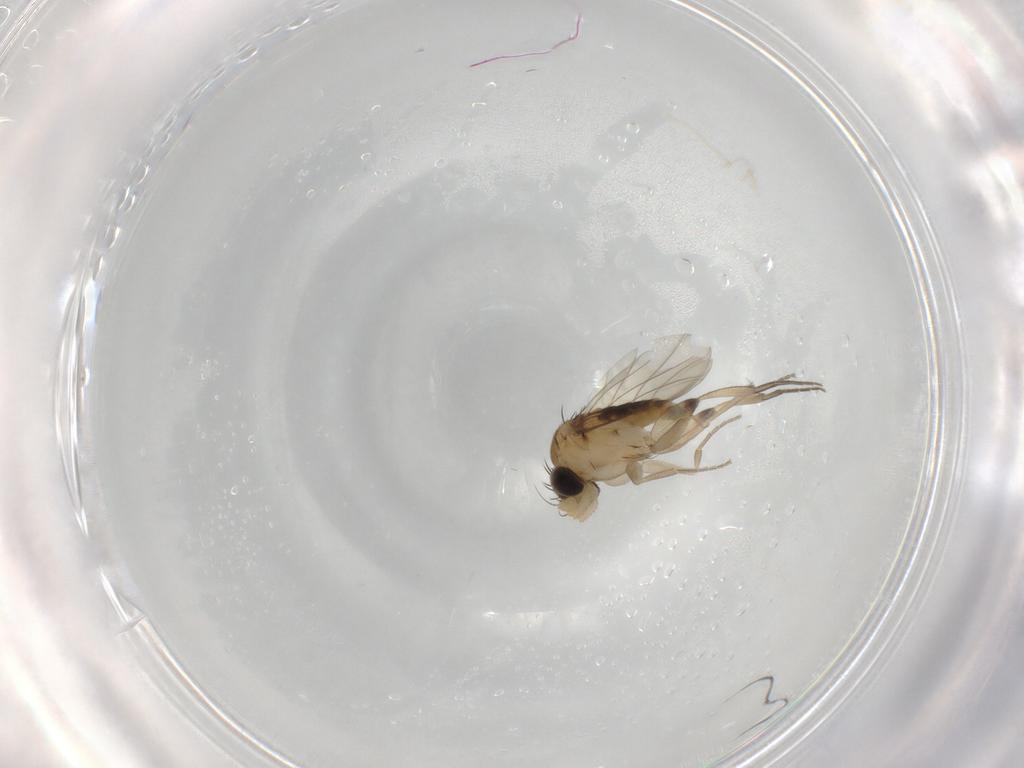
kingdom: Animalia
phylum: Arthropoda
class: Insecta
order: Diptera
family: Phoridae
